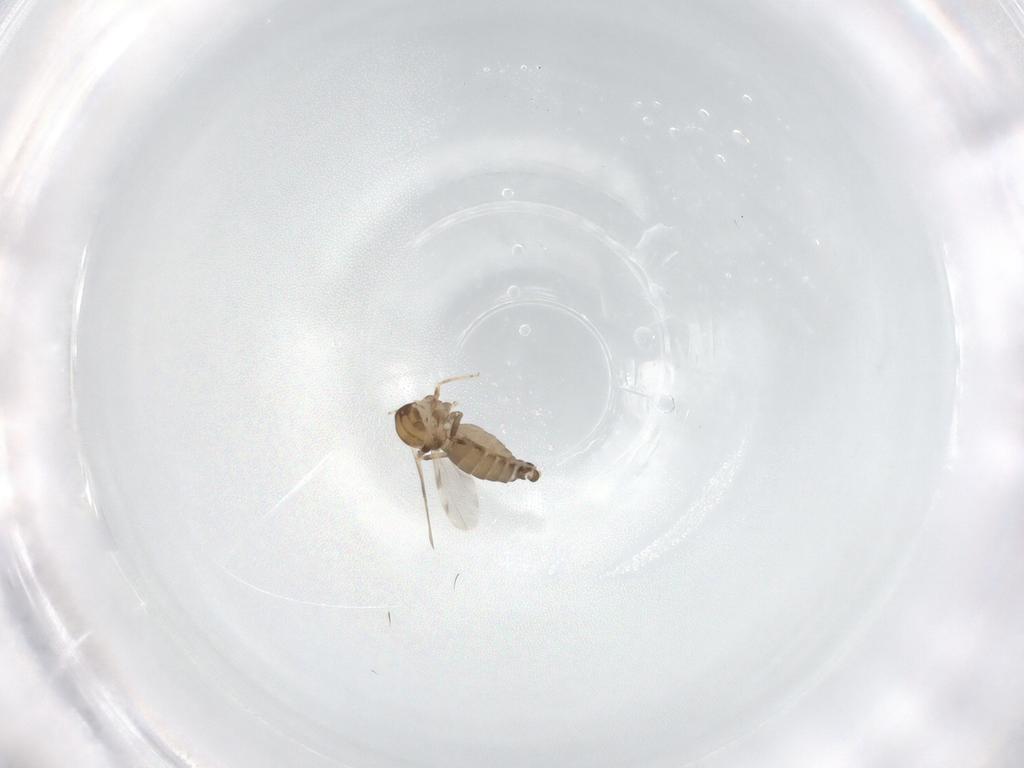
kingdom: Animalia
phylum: Arthropoda
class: Insecta
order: Diptera
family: Ceratopogonidae
